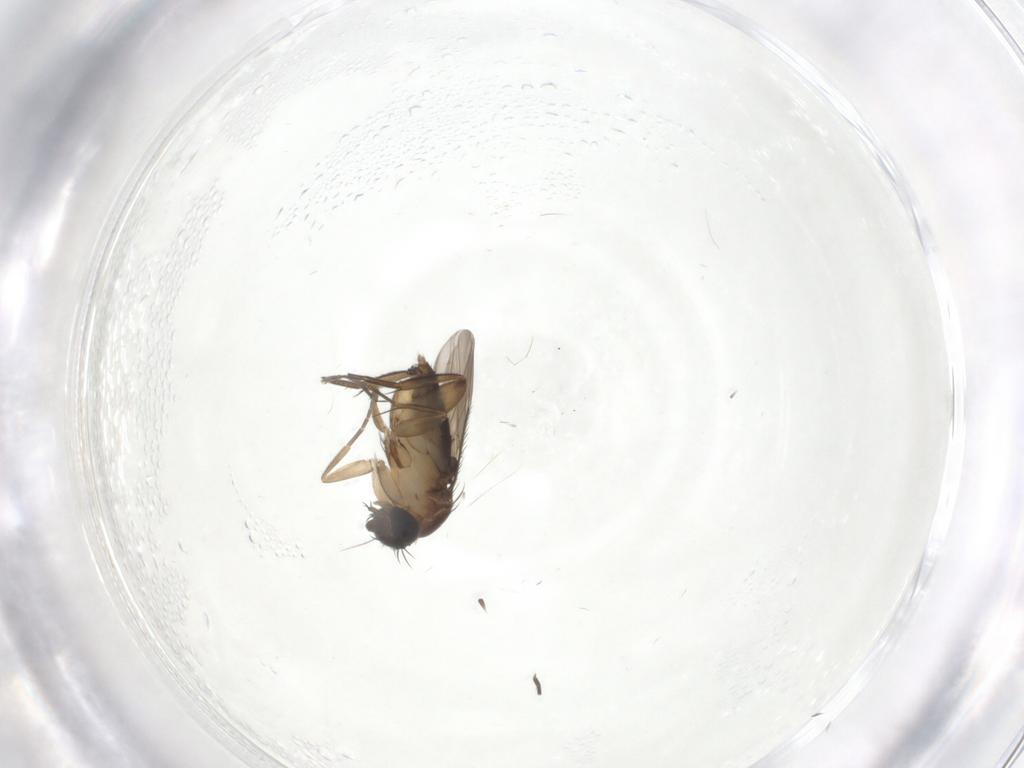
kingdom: Animalia
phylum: Arthropoda
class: Insecta
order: Diptera
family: Phoridae
